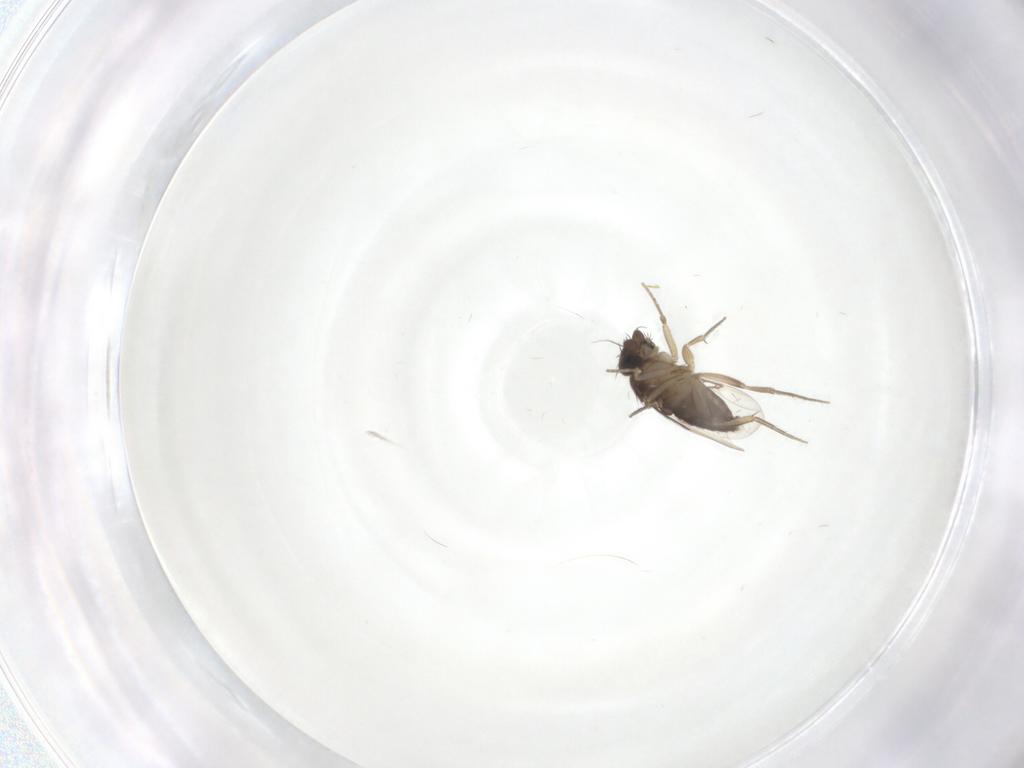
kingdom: Animalia
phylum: Arthropoda
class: Insecta
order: Diptera
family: Phoridae
